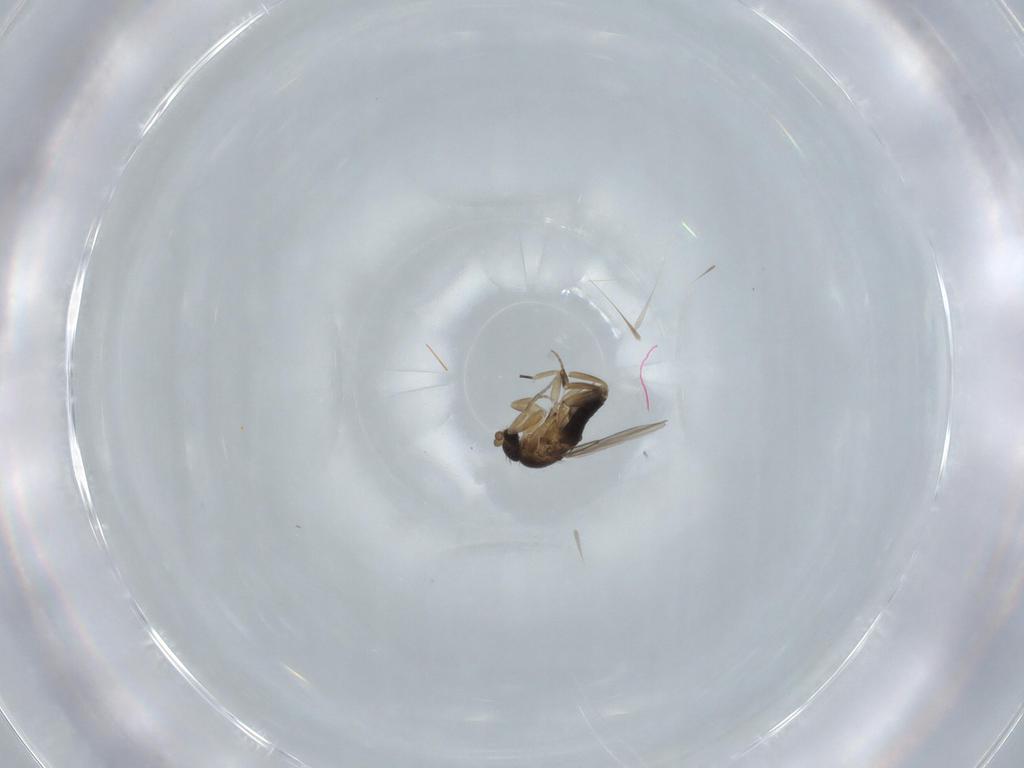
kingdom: Animalia
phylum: Arthropoda
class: Insecta
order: Diptera
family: Phoridae
